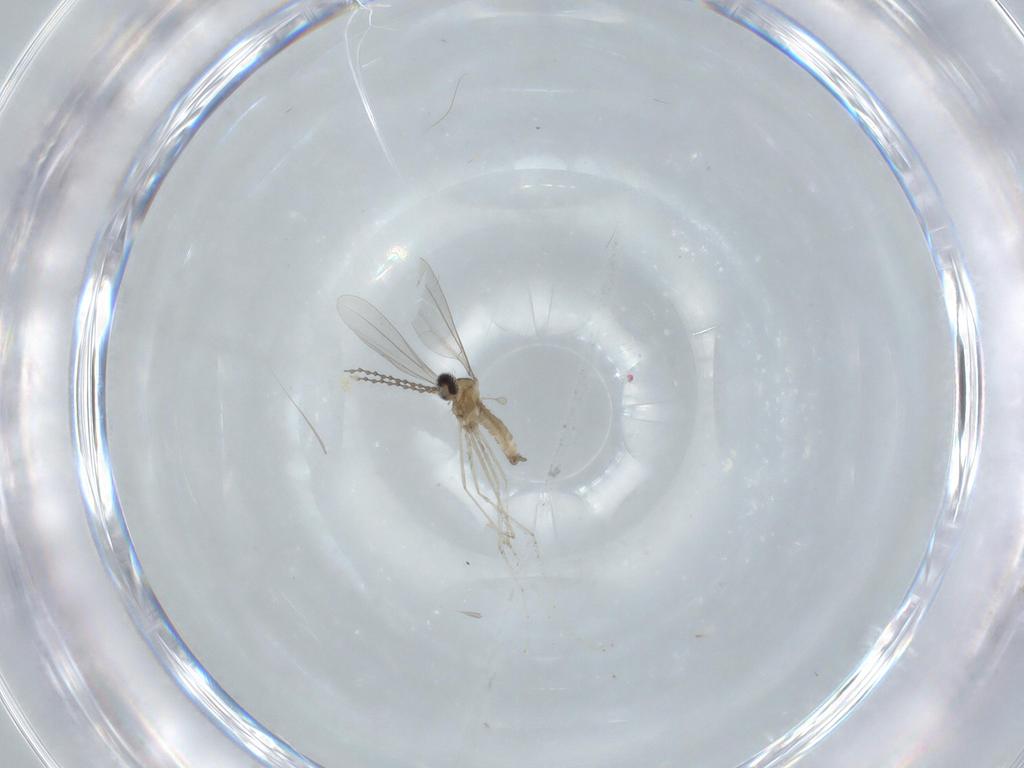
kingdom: Animalia
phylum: Arthropoda
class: Insecta
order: Diptera
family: Cecidomyiidae
